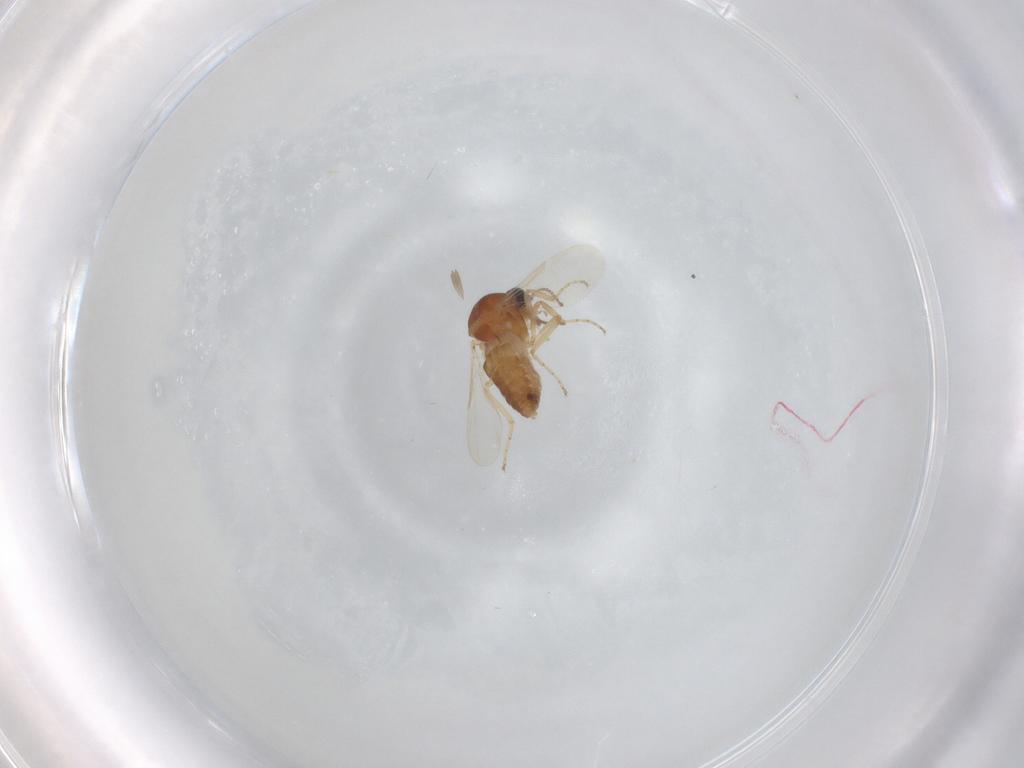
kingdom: Animalia
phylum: Arthropoda
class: Insecta
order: Diptera
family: Ceratopogonidae
